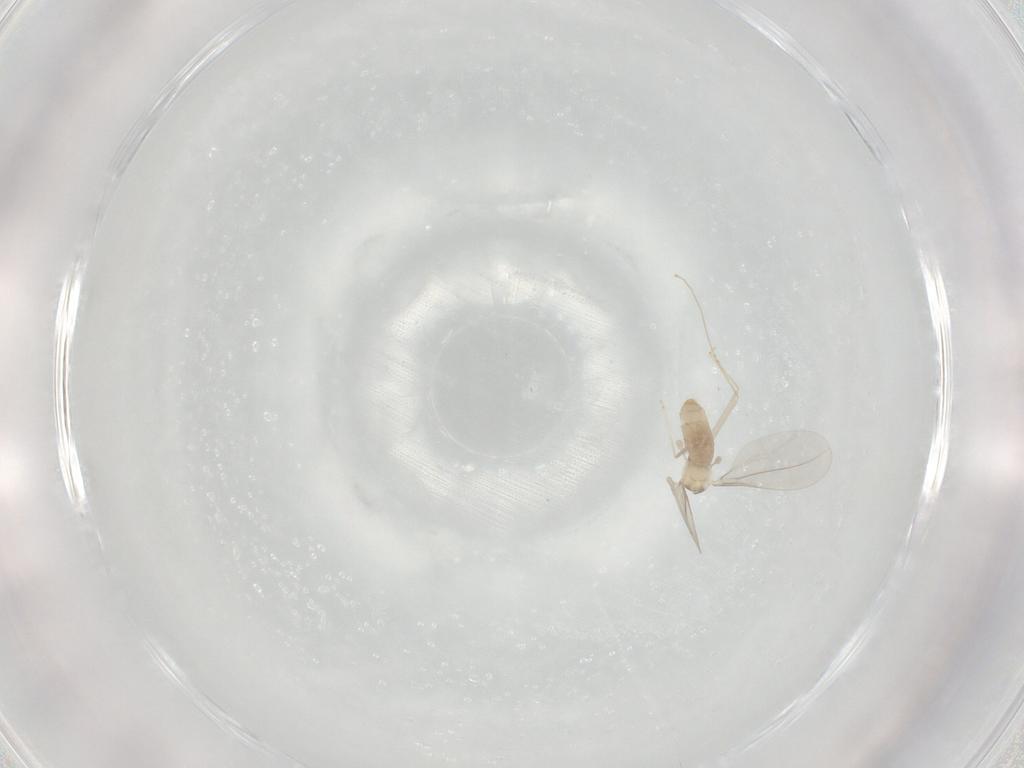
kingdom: Animalia
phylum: Arthropoda
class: Insecta
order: Diptera
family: Cecidomyiidae
